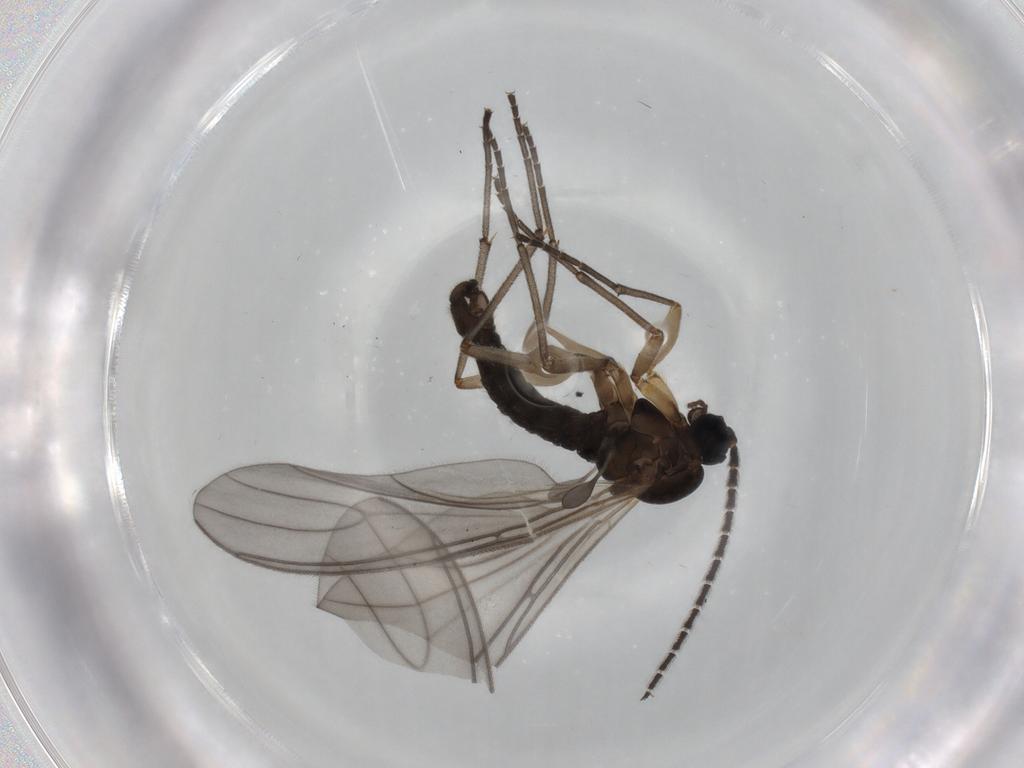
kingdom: Animalia
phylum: Arthropoda
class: Insecta
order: Diptera
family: Sciaridae
